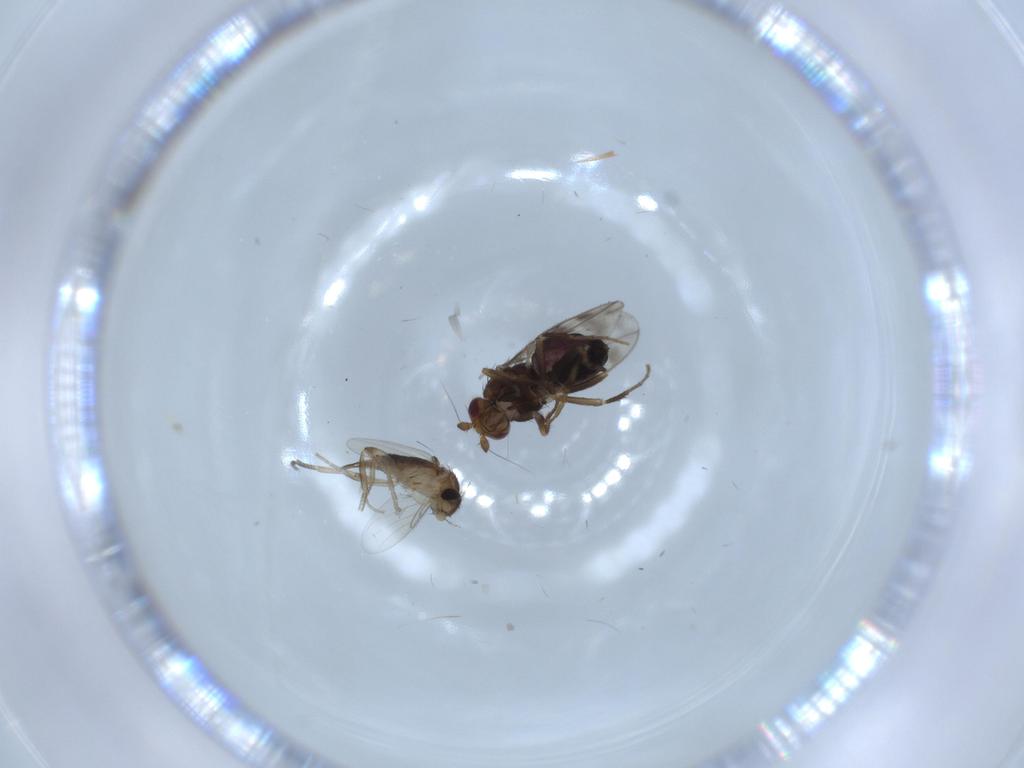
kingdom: Animalia
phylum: Arthropoda
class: Insecta
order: Diptera
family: Phoridae
